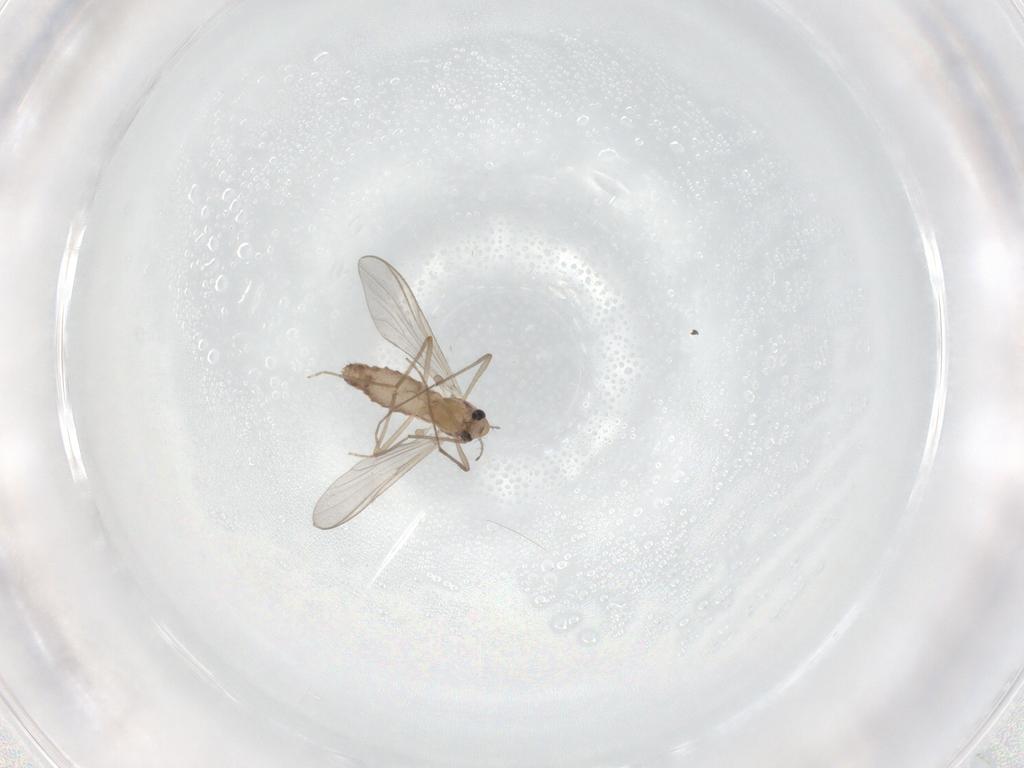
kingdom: Animalia
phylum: Arthropoda
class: Insecta
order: Diptera
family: Chironomidae
